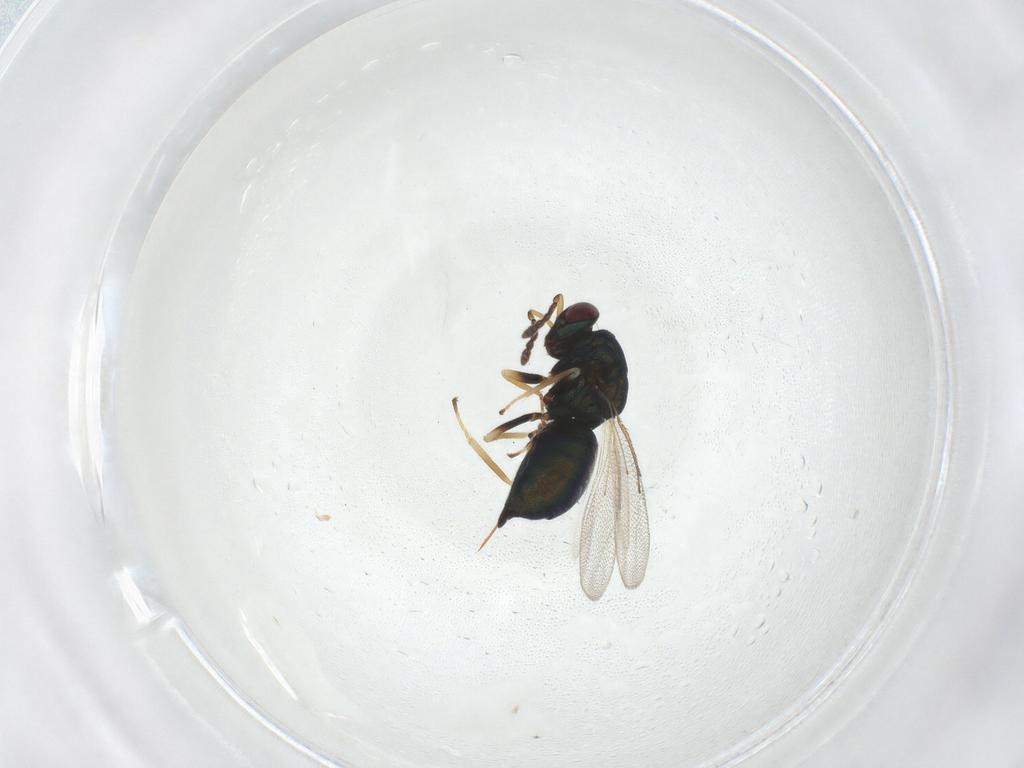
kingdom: Animalia
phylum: Arthropoda
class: Insecta
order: Hymenoptera
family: Eulophidae
